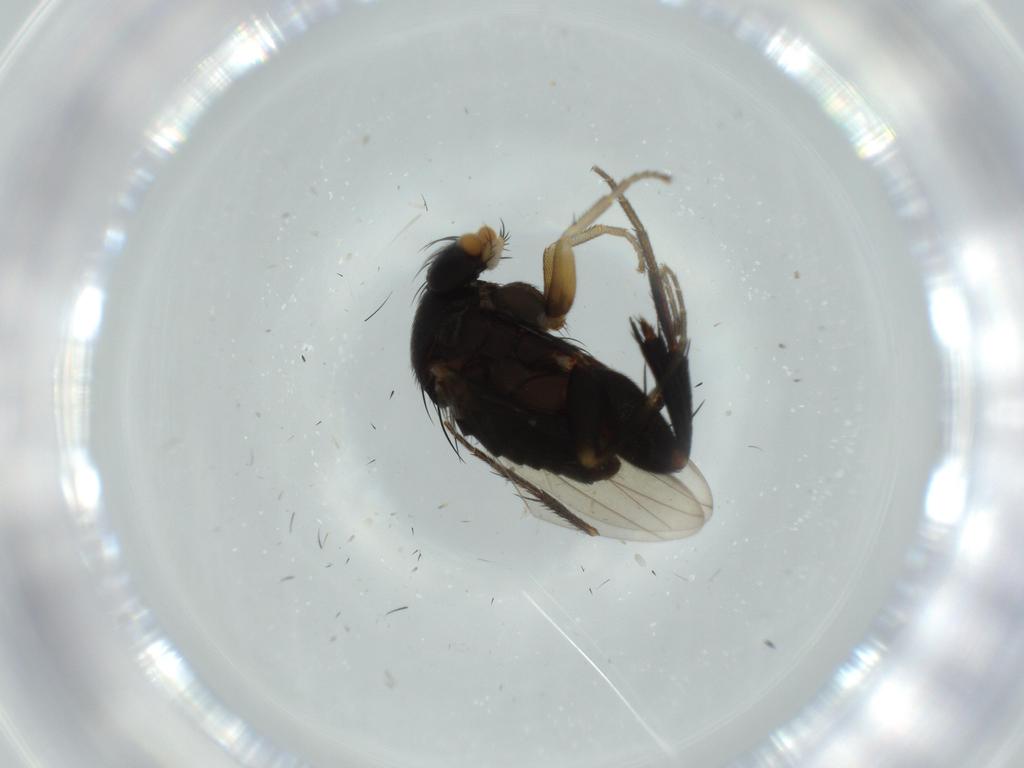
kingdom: Animalia
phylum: Arthropoda
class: Insecta
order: Diptera
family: Phoridae
